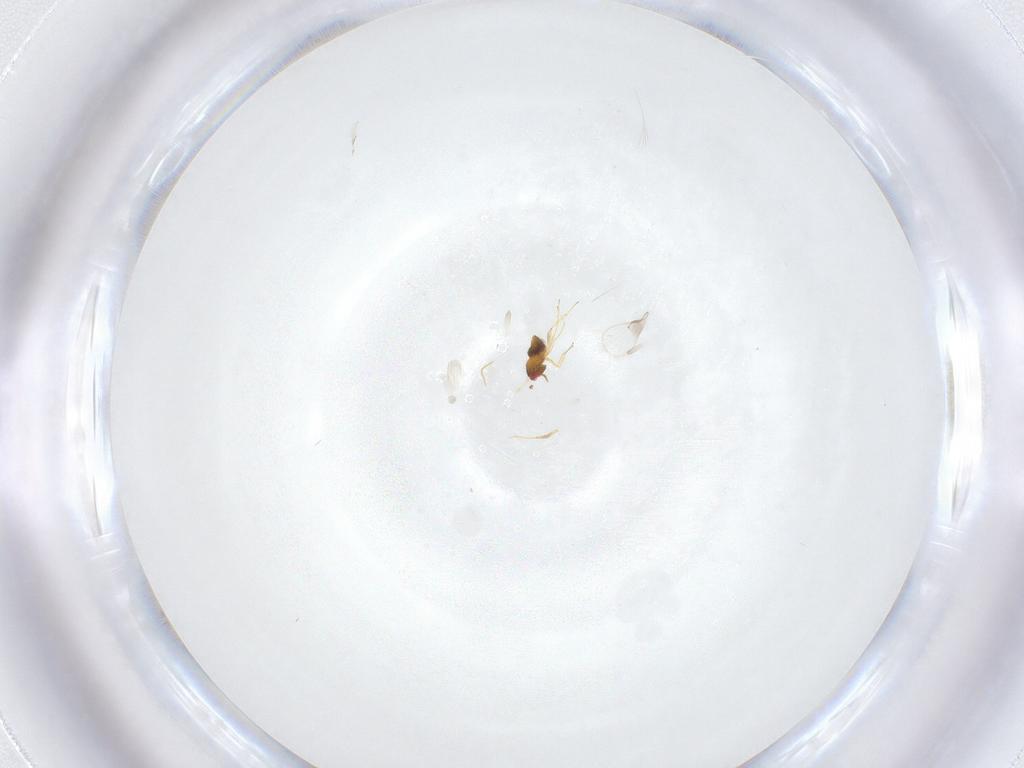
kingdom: Animalia
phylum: Arthropoda
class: Insecta
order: Hymenoptera
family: Trichogrammatidae
